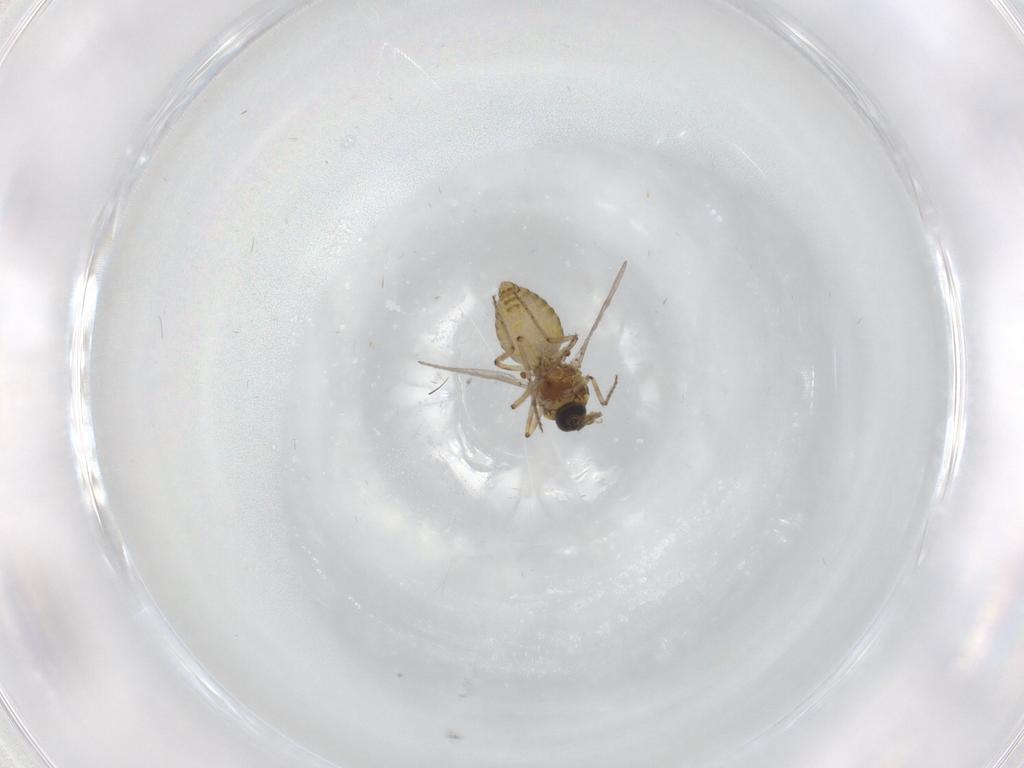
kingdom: Animalia
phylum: Arthropoda
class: Insecta
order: Diptera
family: Ceratopogonidae
